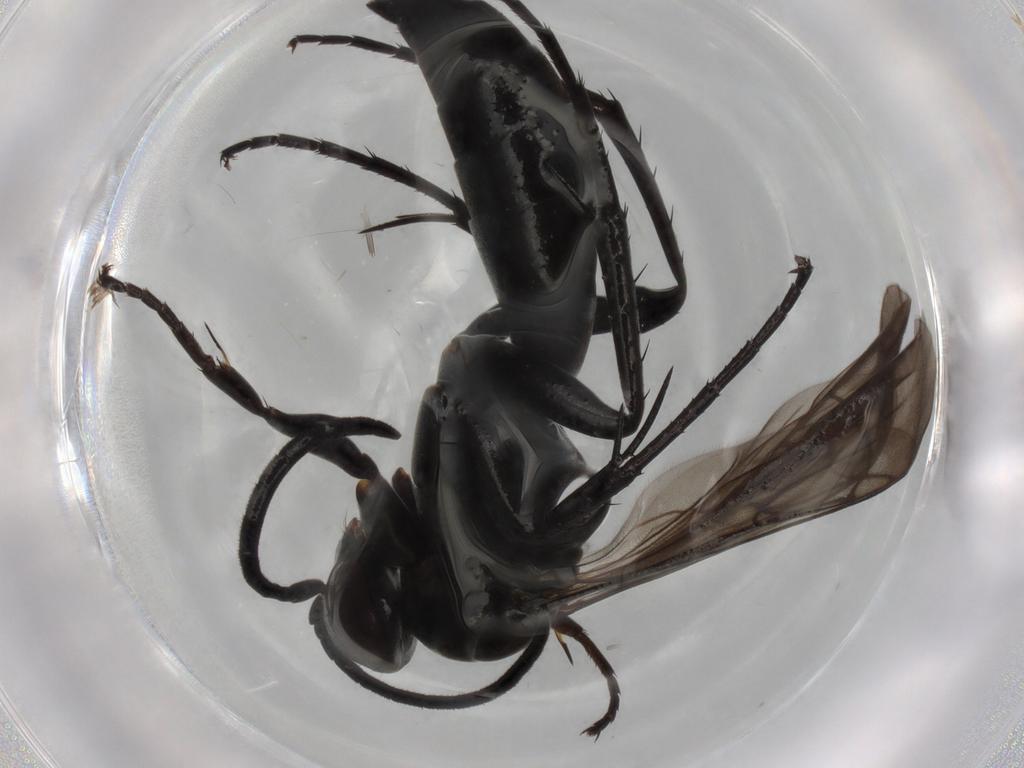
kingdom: Animalia
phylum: Arthropoda
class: Insecta
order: Hymenoptera
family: Pompilidae
